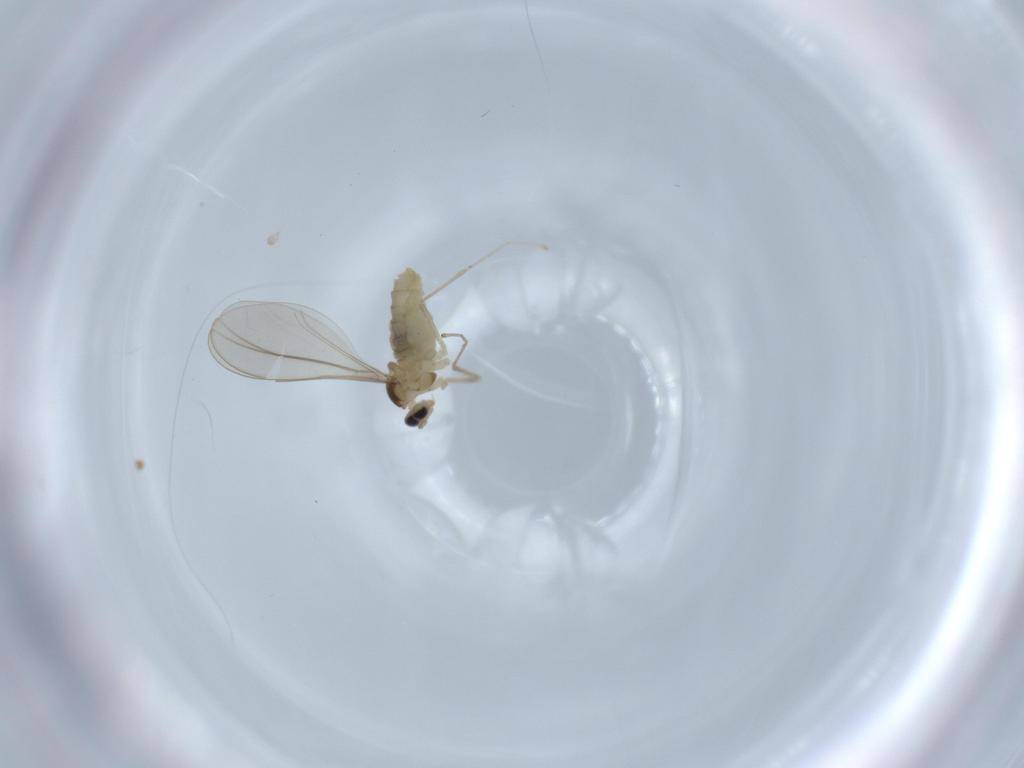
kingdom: Animalia
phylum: Arthropoda
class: Insecta
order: Diptera
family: Cecidomyiidae
